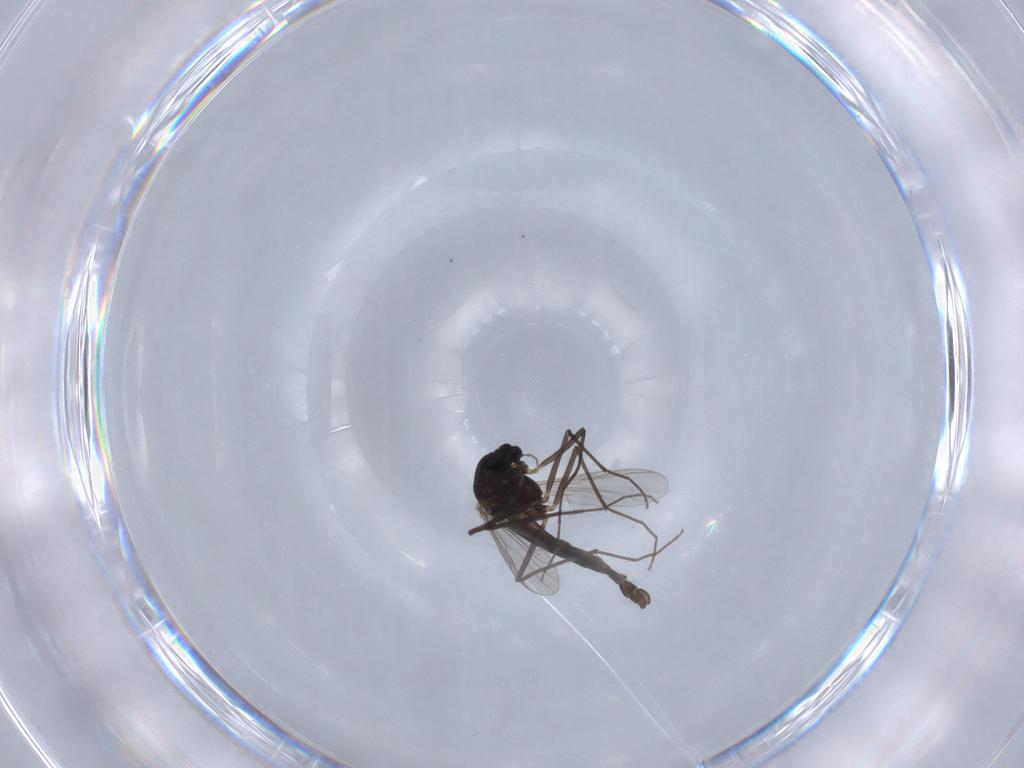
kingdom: Animalia
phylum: Arthropoda
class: Insecta
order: Diptera
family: Chironomidae
